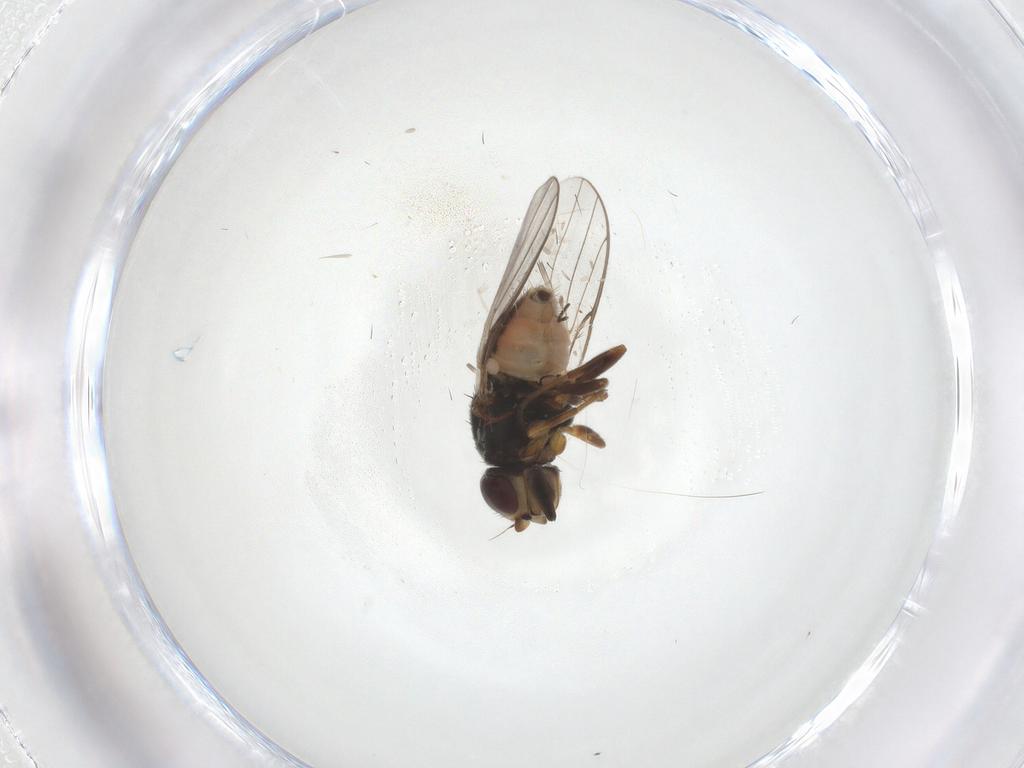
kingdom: Animalia
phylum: Arthropoda
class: Insecta
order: Diptera
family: Chloropidae
